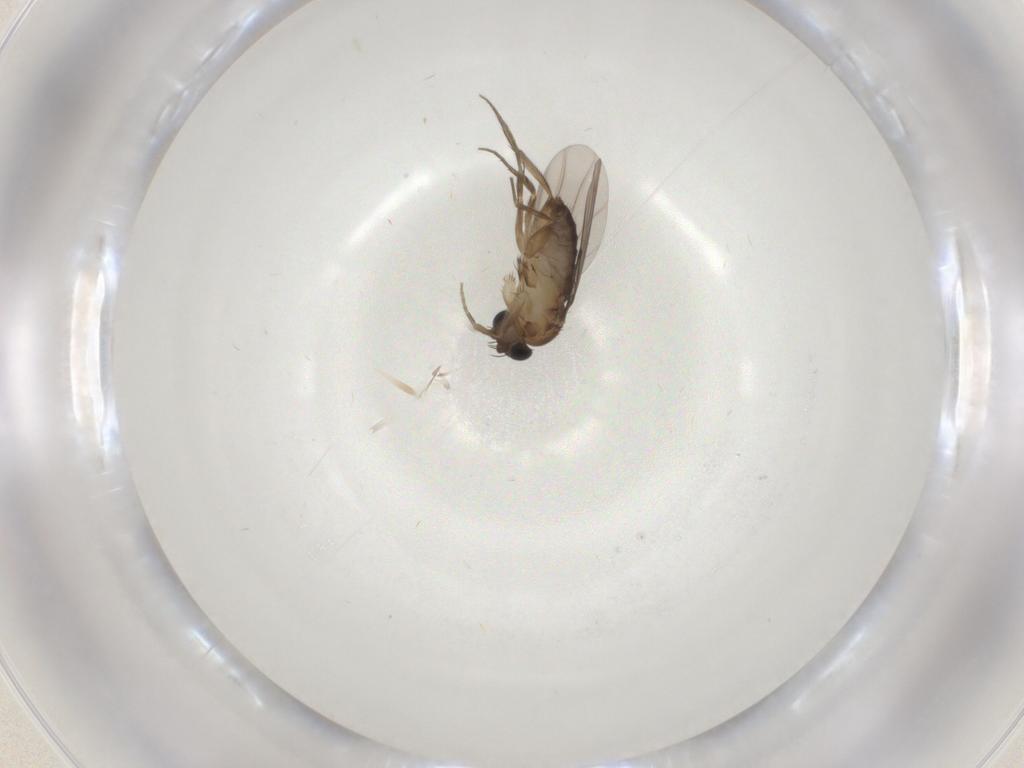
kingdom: Animalia
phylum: Arthropoda
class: Insecta
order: Diptera
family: Phoridae
